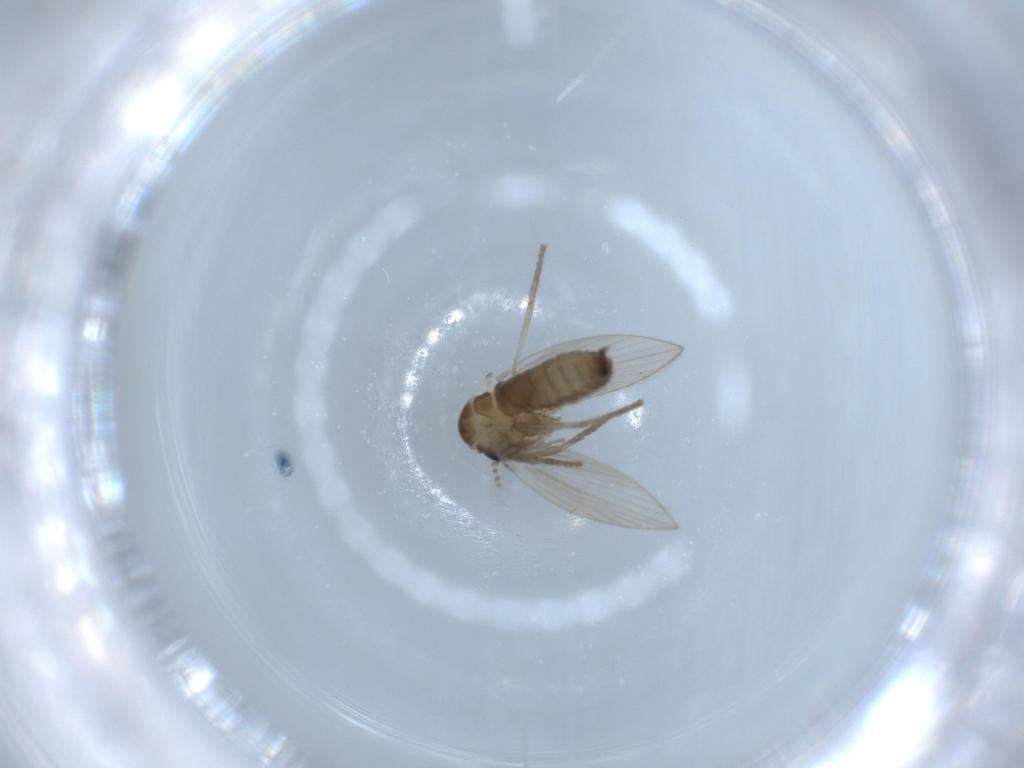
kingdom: Animalia
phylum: Arthropoda
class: Insecta
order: Diptera
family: Psychodidae
